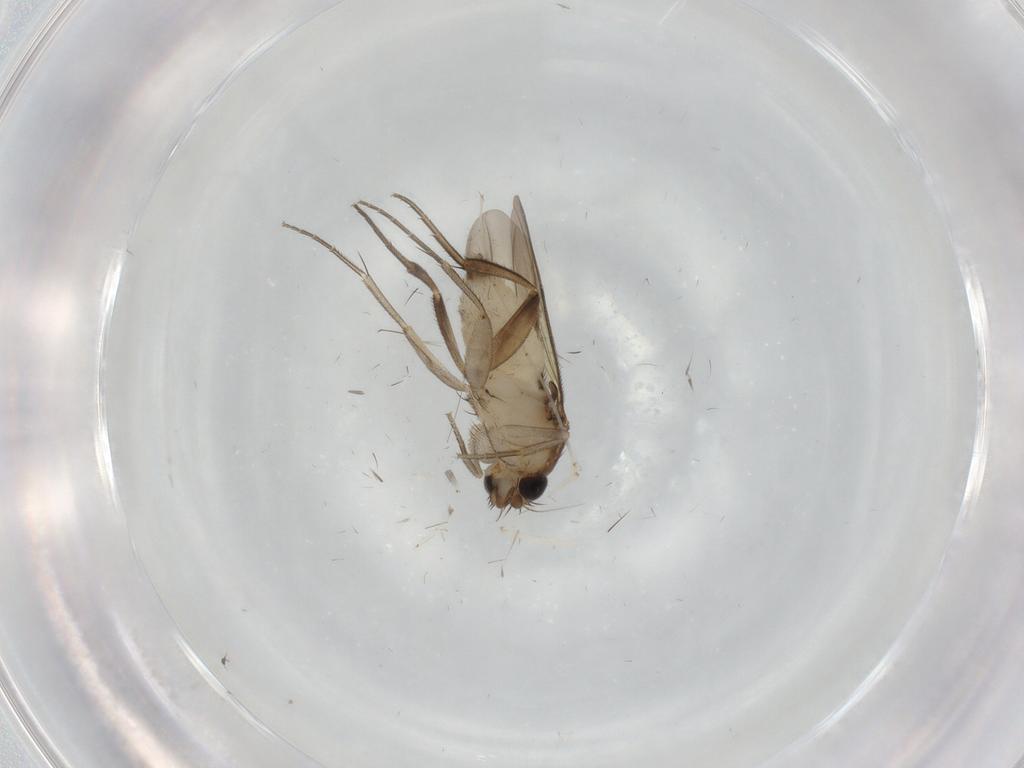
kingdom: Animalia
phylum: Arthropoda
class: Insecta
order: Diptera
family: Cecidomyiidae
